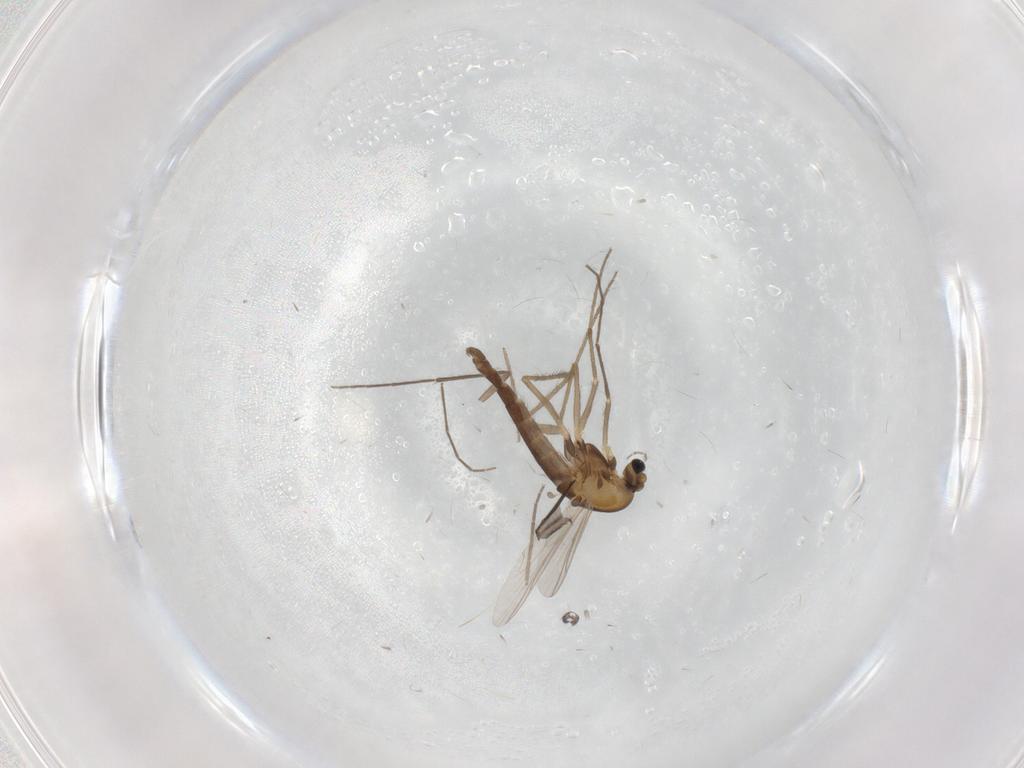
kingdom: Animalia
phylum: Arthropoda
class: Insecta
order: Diptera
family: Chironomidae
